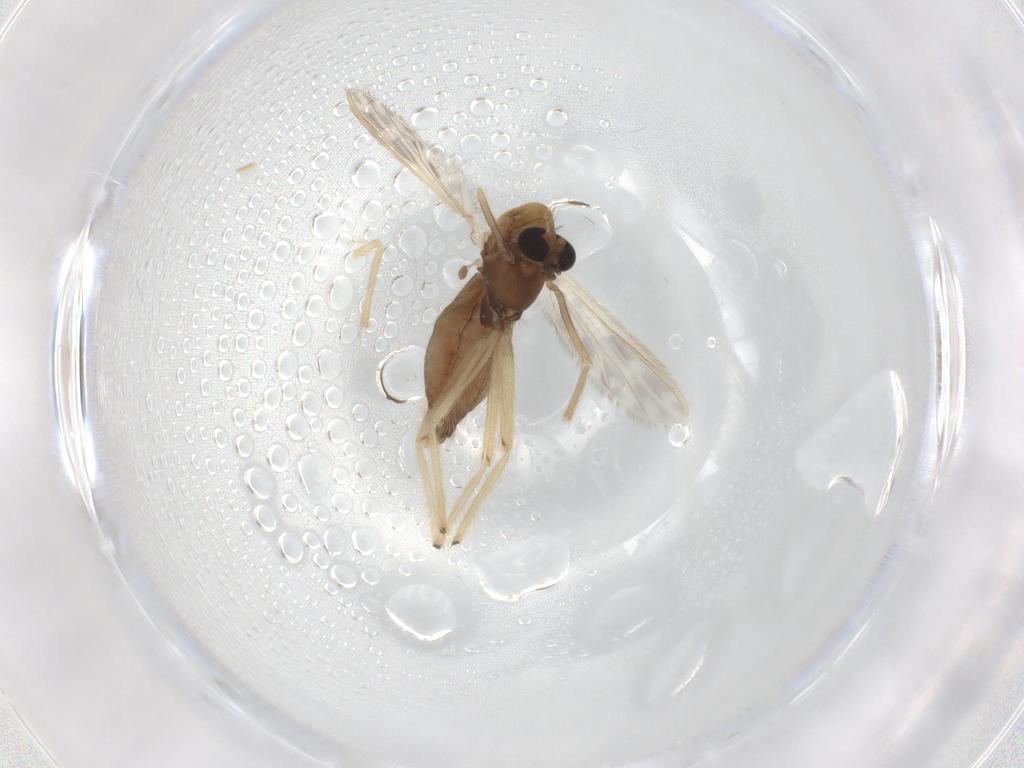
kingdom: Animalia
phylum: Arthropoda
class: Insecta
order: Diptera
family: Chironomidae
